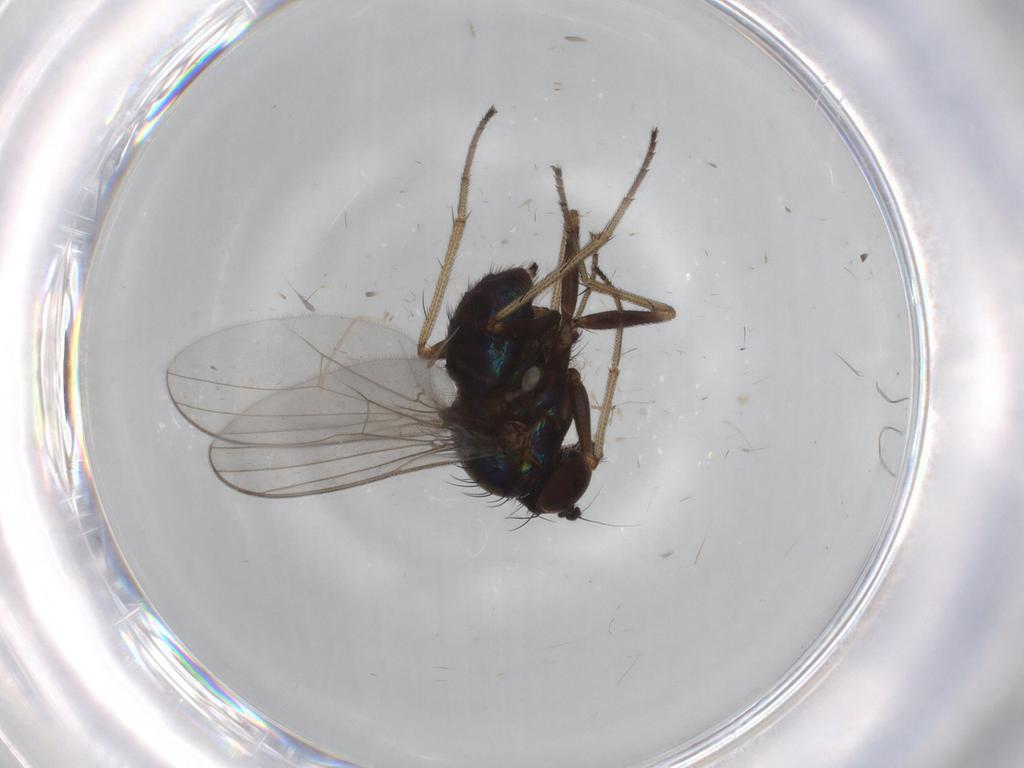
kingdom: Animalia
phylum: Arthropoda
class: Insecta
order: Diptera
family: Dolichopodidae
